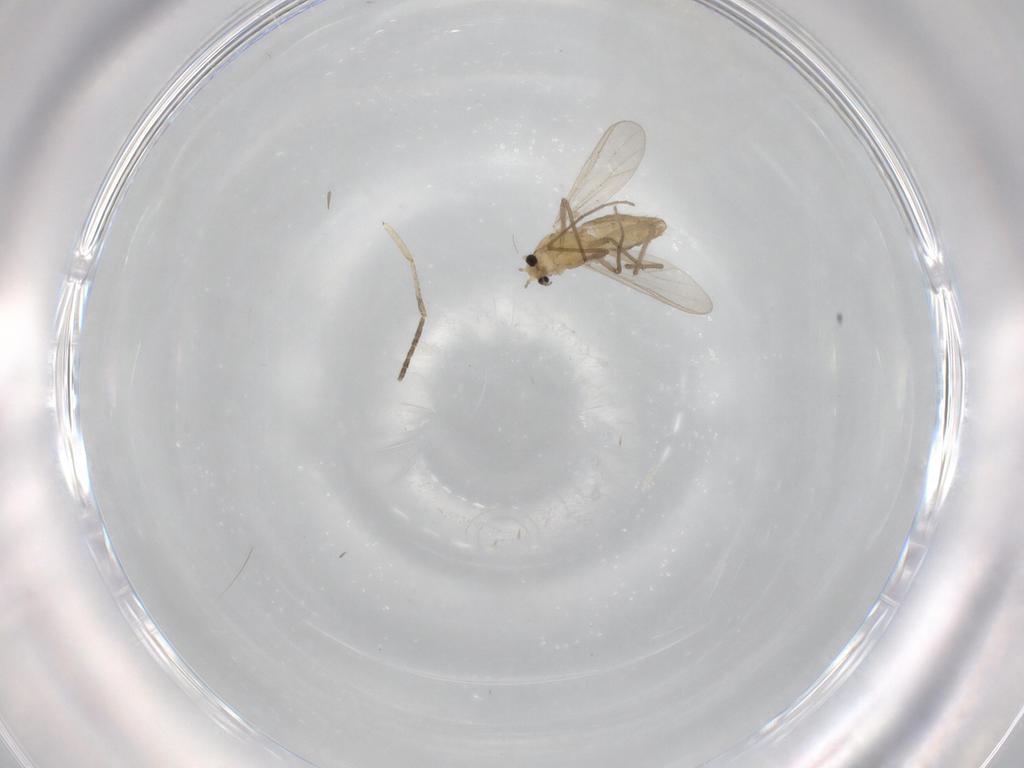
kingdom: Animalia
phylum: Arthropoda
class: Insecta
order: Diptera
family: Chironomidae
